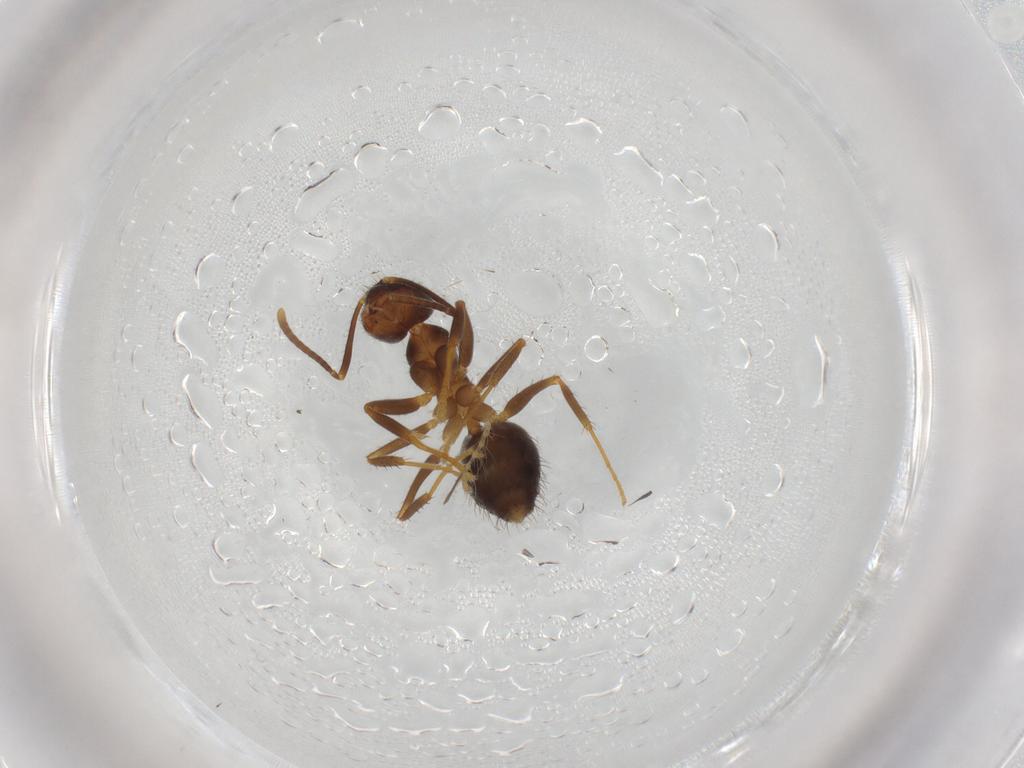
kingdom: Animalia
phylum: Arthropoda
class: Insecta
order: Hymenoptera
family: Formicidae
